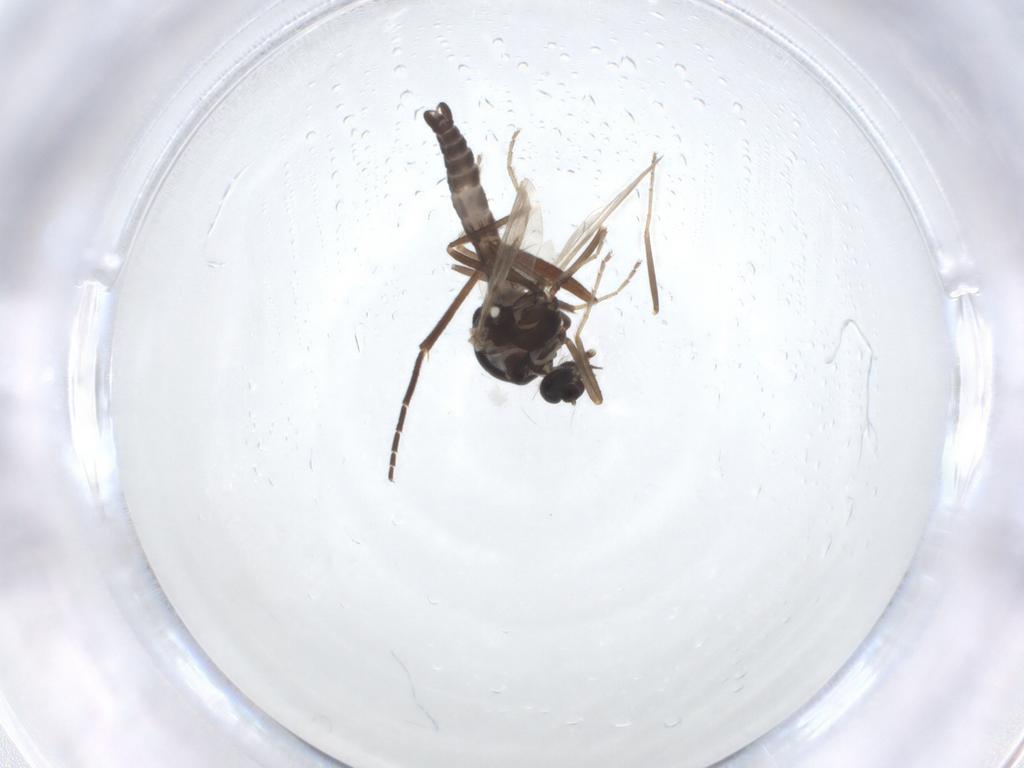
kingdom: Animalia
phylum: Arthropoda
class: Insecta
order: Diptera
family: Ceratopogonidae
